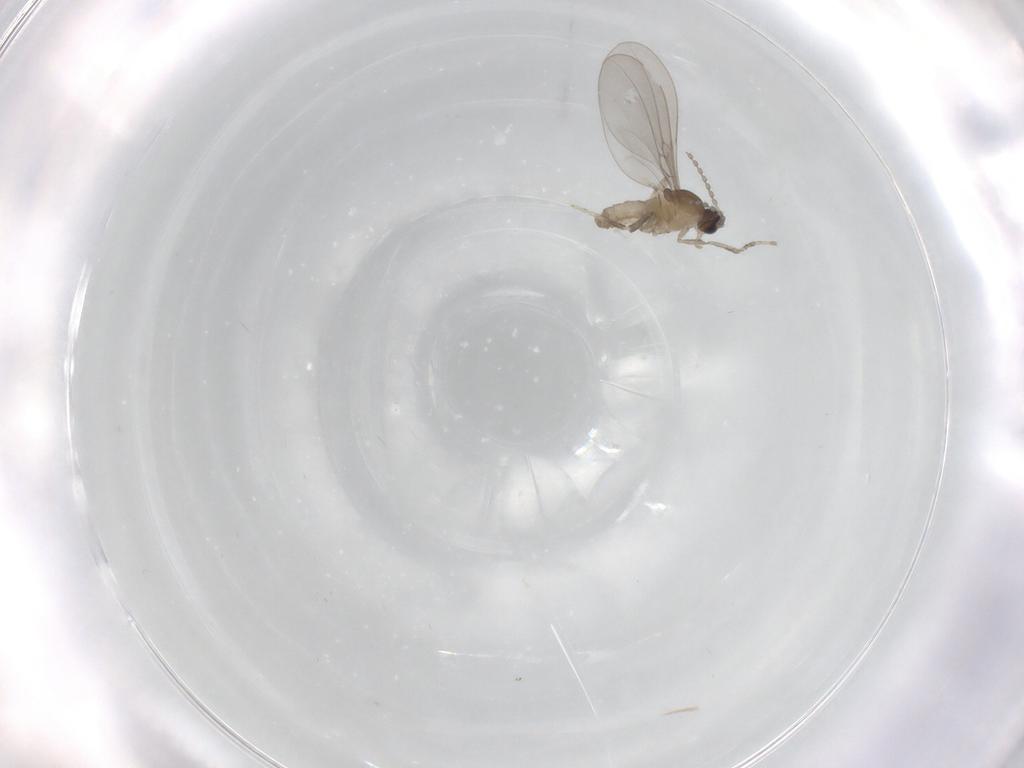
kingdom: Animalia
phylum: Arthropoda
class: Insecta
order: Diptera
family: Cecidomyiidae
